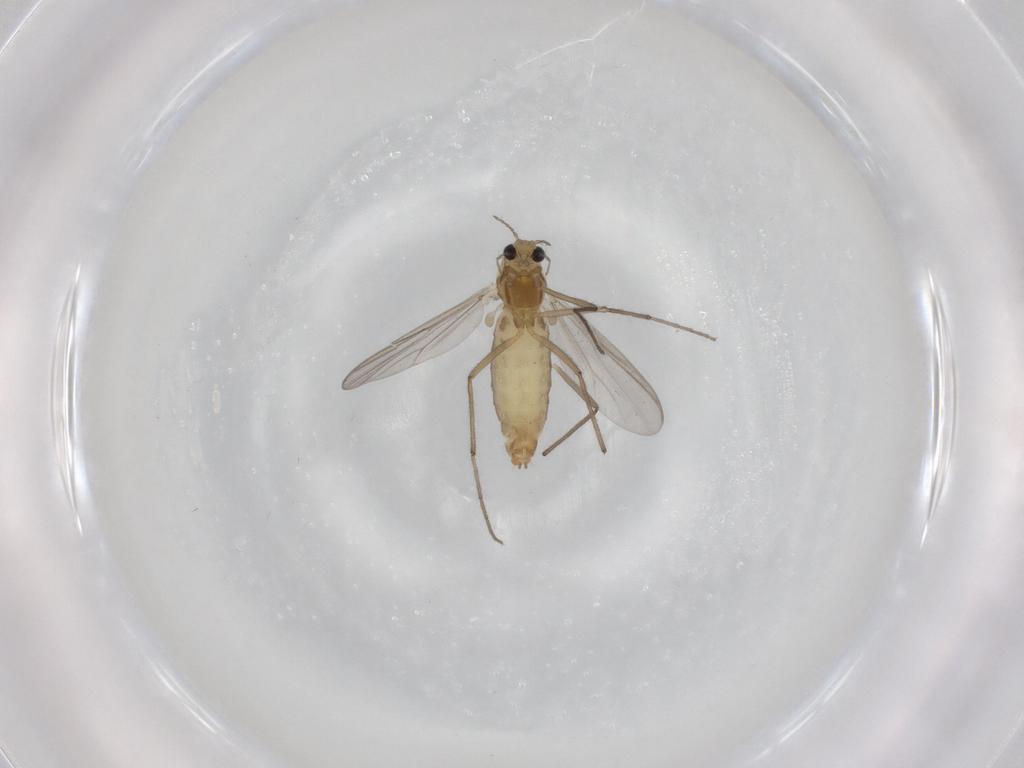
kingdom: Animalia
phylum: Arthropoda
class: Insecta
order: Diptera
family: Chironomidae
